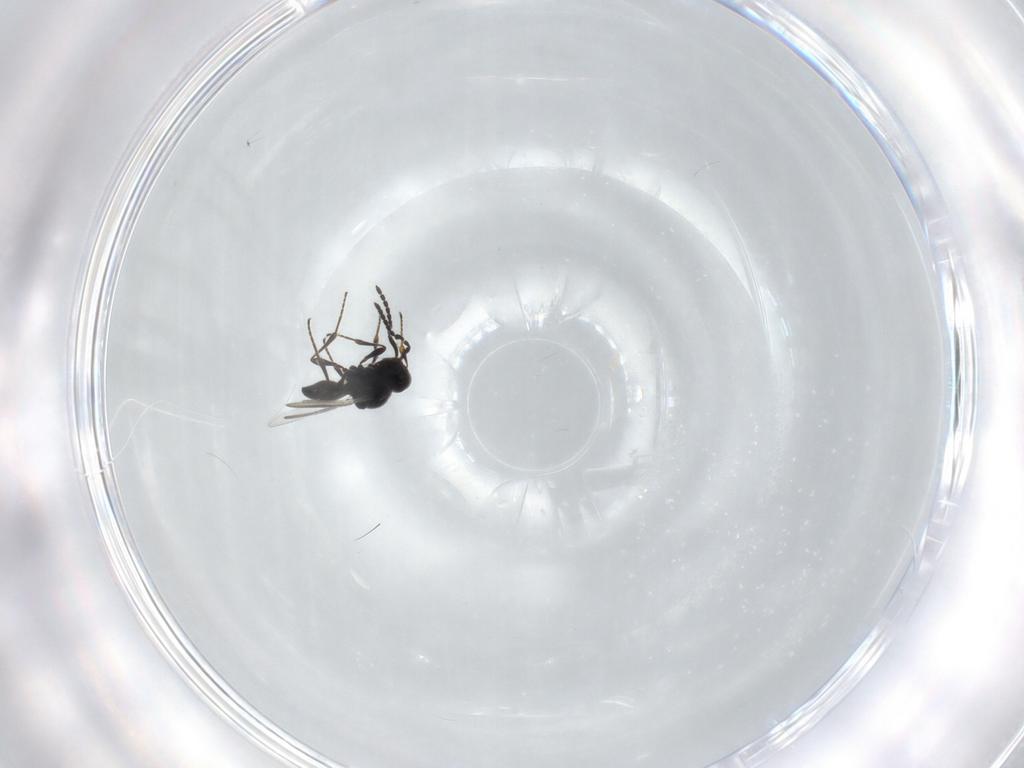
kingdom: Animalia
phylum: Arthropoda
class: Insecta
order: Hymenoptera
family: Platygastridae
